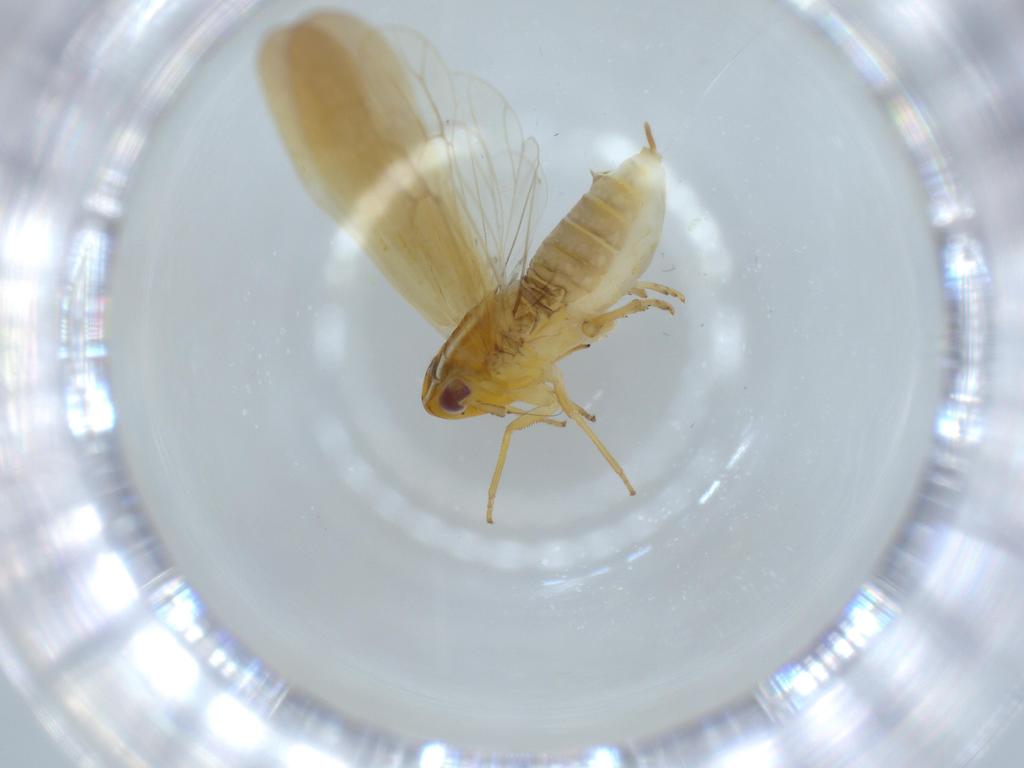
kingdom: Animalia
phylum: Arthropoda
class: Insecta
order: Hemiptera
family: Delphacidae
